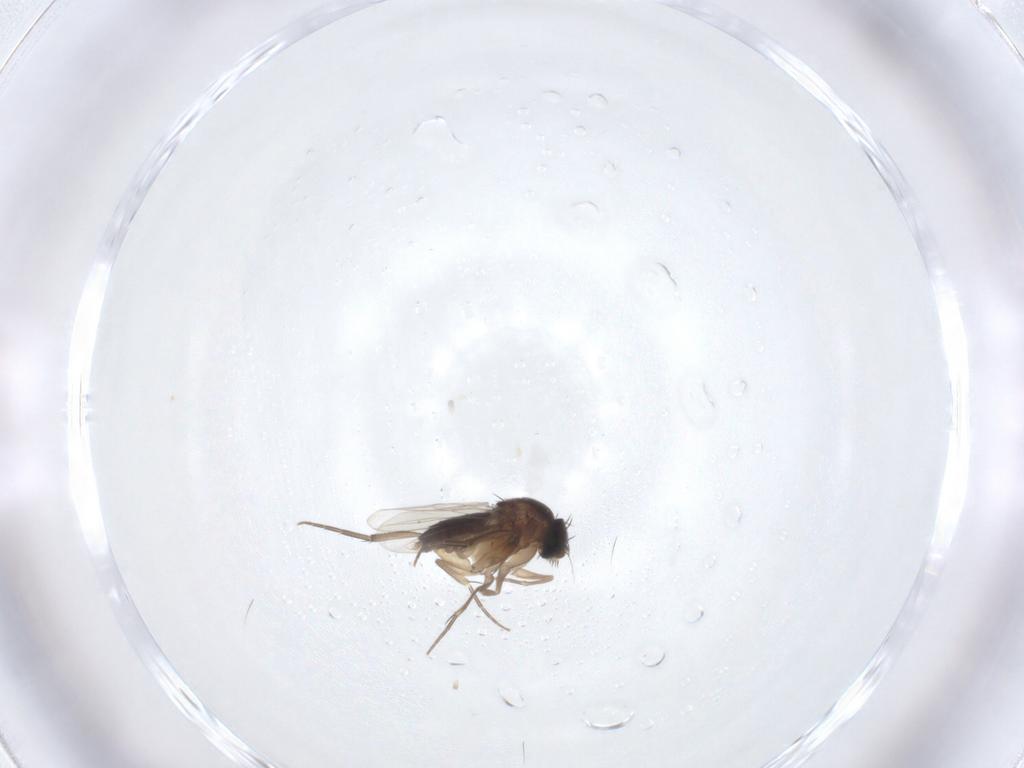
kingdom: Animalia
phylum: Arthropoda
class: Insecta
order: Diptera
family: Phoridae
